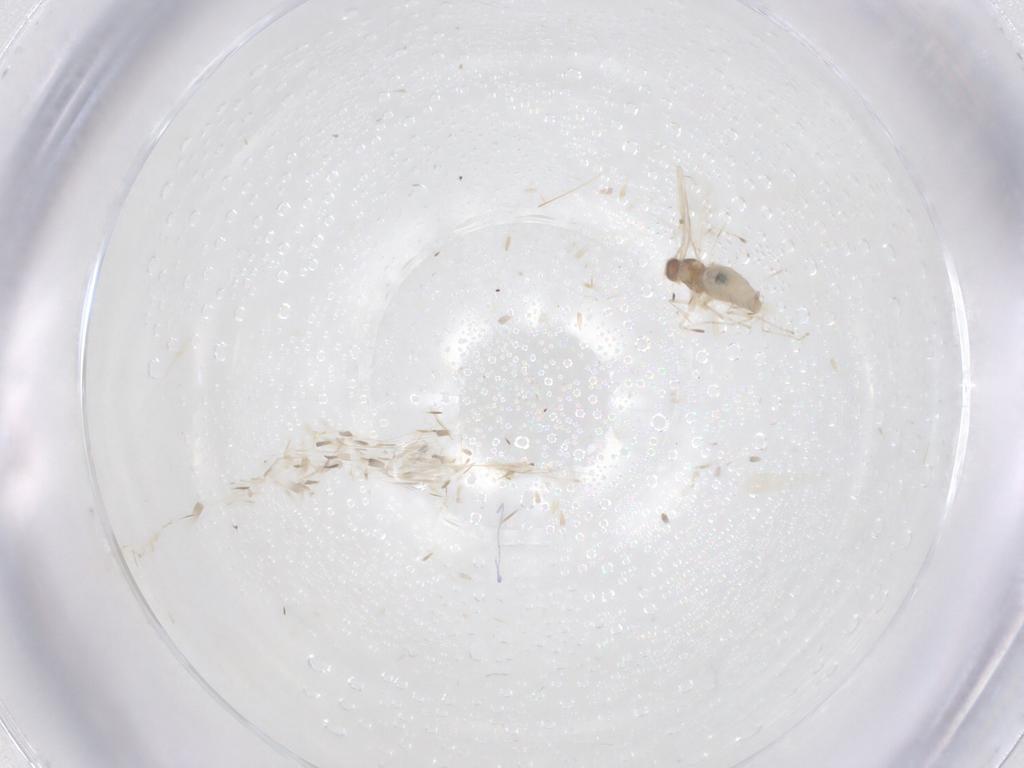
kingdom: Animalia
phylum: Arthropoda
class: Insecta
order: Diptera
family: Cecidomyiidae
